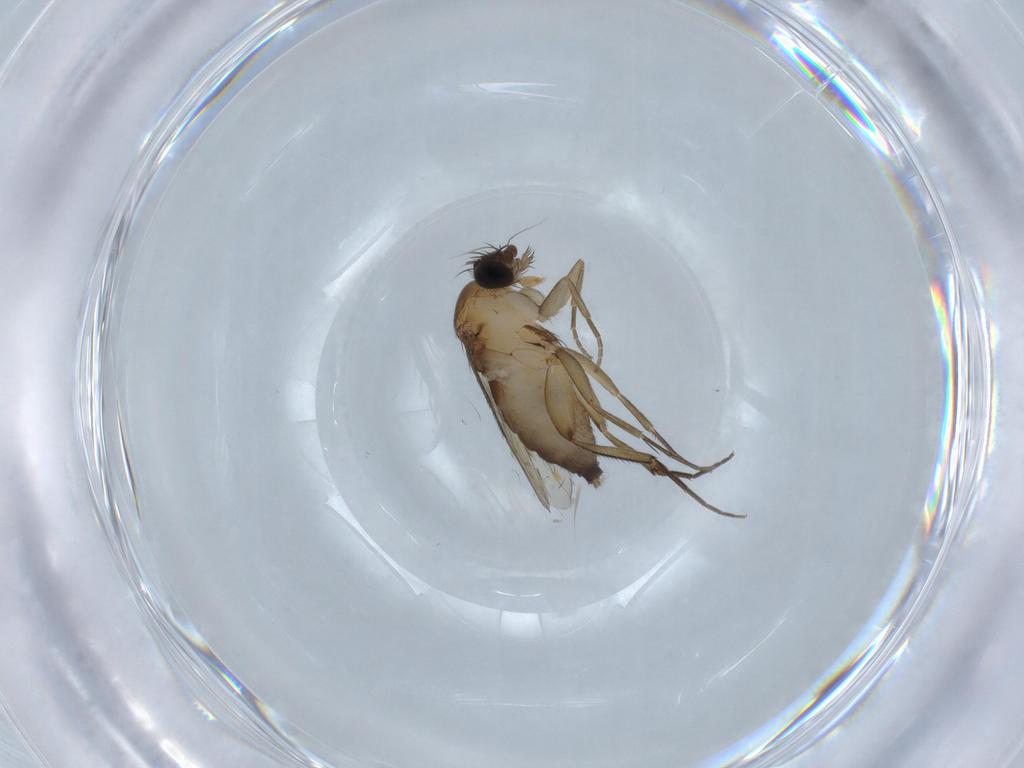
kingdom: Animalia
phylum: Arthropoda
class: Insecta
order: Diptera
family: Phoridae
